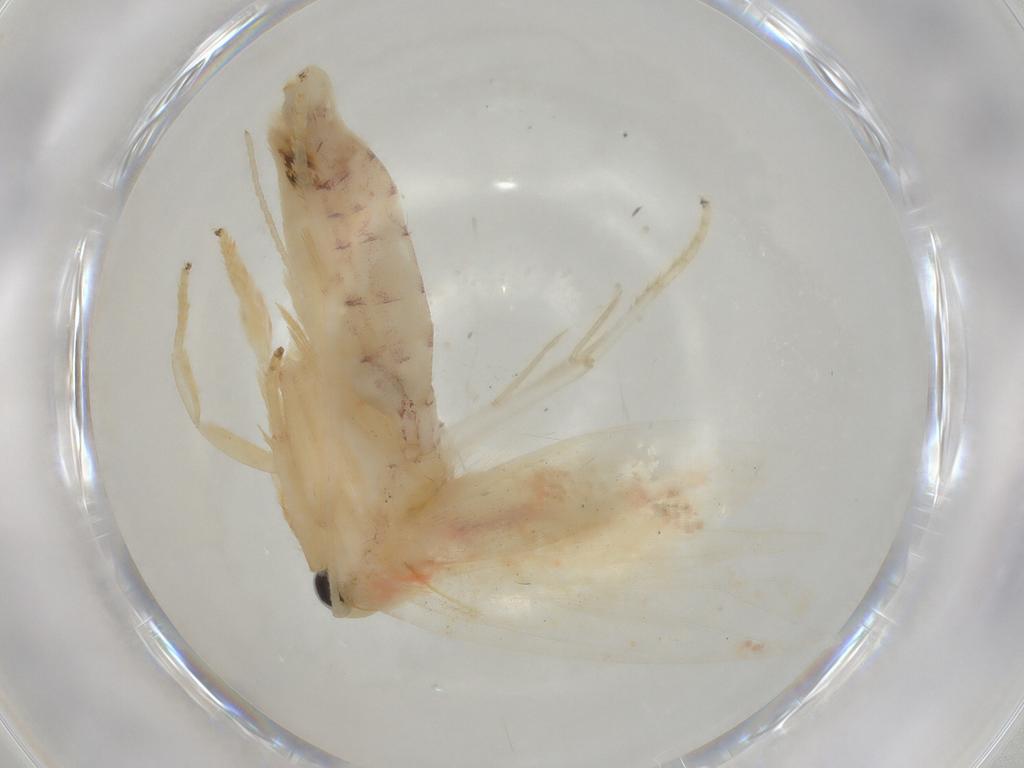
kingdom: Animalia
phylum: Arthropoda
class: Insecta
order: Lepidoptera
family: Erebidae
